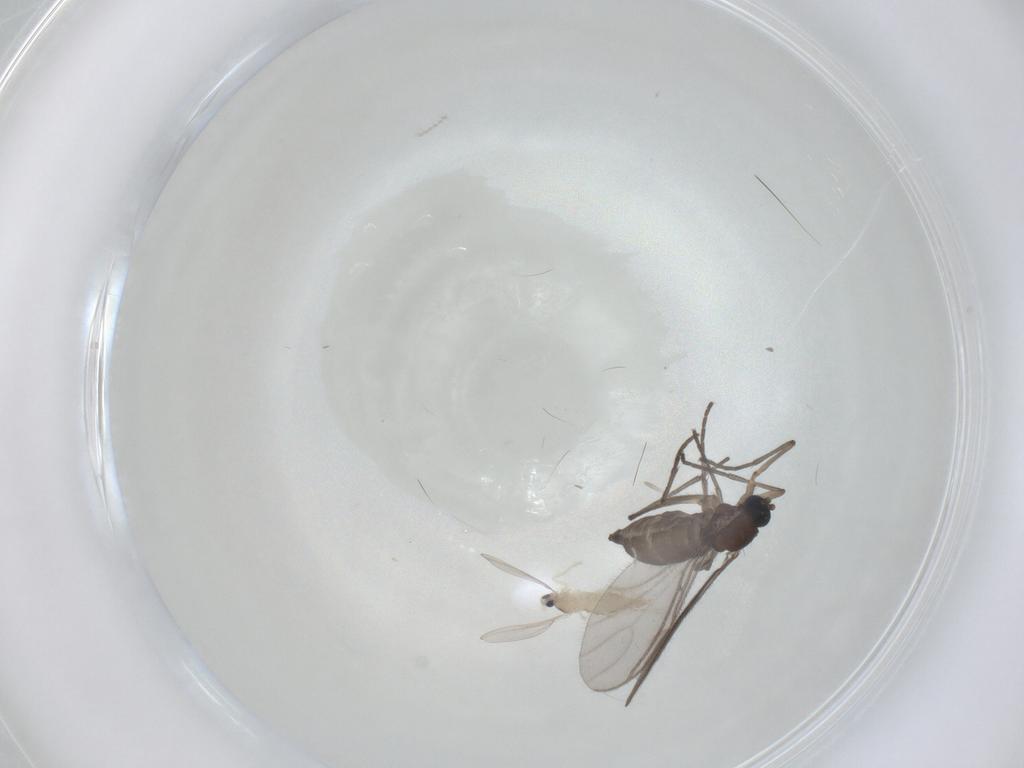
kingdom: Animalia
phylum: Arthropoda
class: Insecta
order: Diptera
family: Cecidomyiidae
